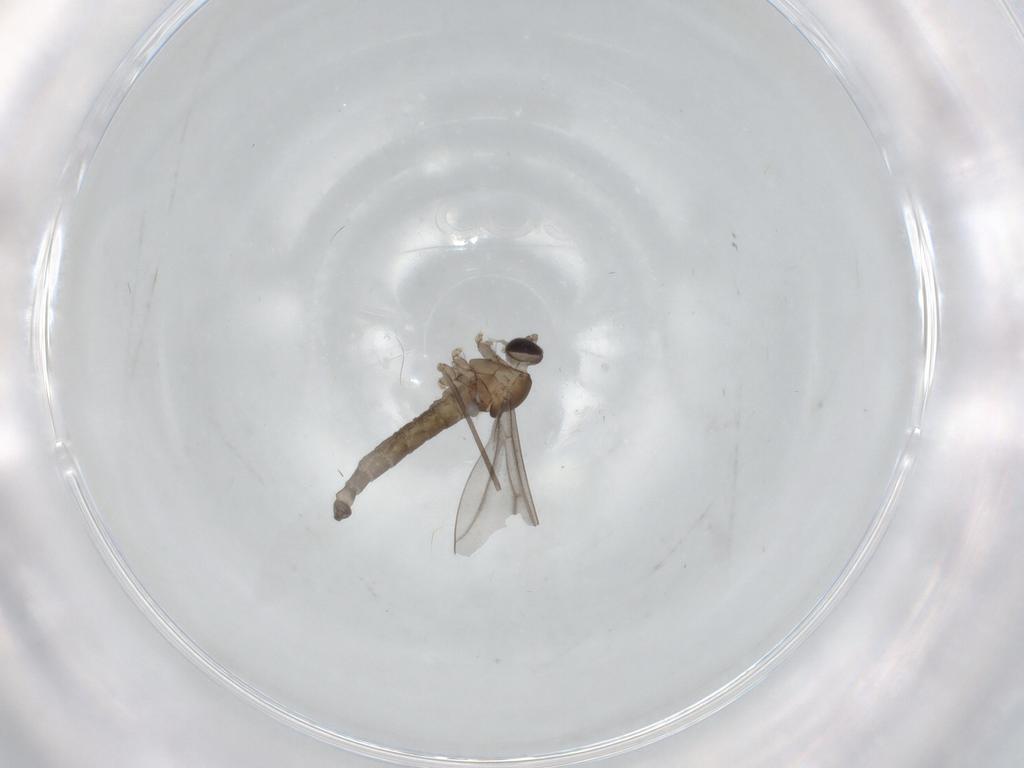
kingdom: Animalia
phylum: Arthropoda
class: Insecta
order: Diptera
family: Cecidomyiidae
